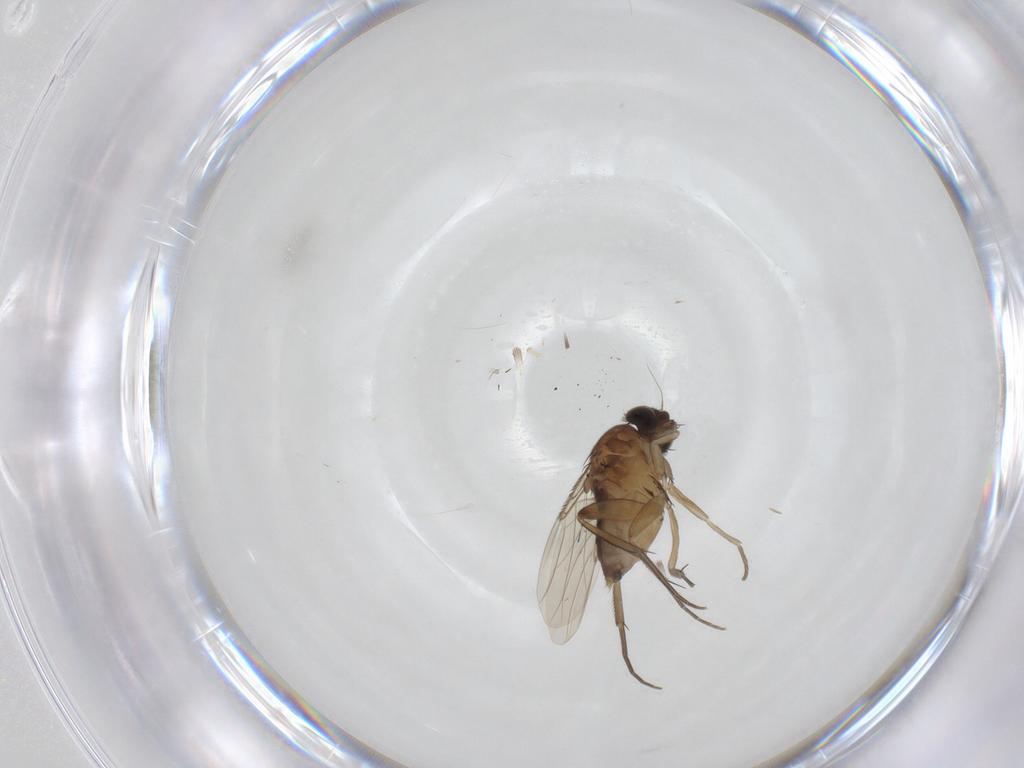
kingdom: Animalia
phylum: Arthropoda
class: Insecta
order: Diptera
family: Phoridae
